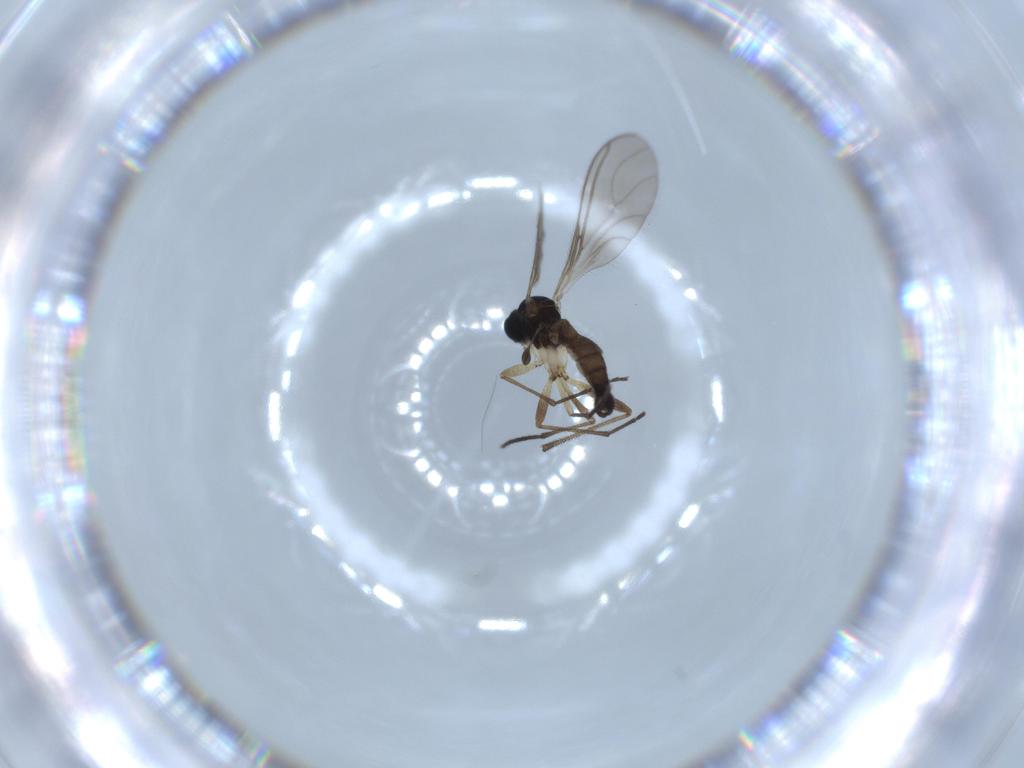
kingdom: Animalia
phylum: Arthropoda
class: Insecta
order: Diptera
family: Sciaridae
